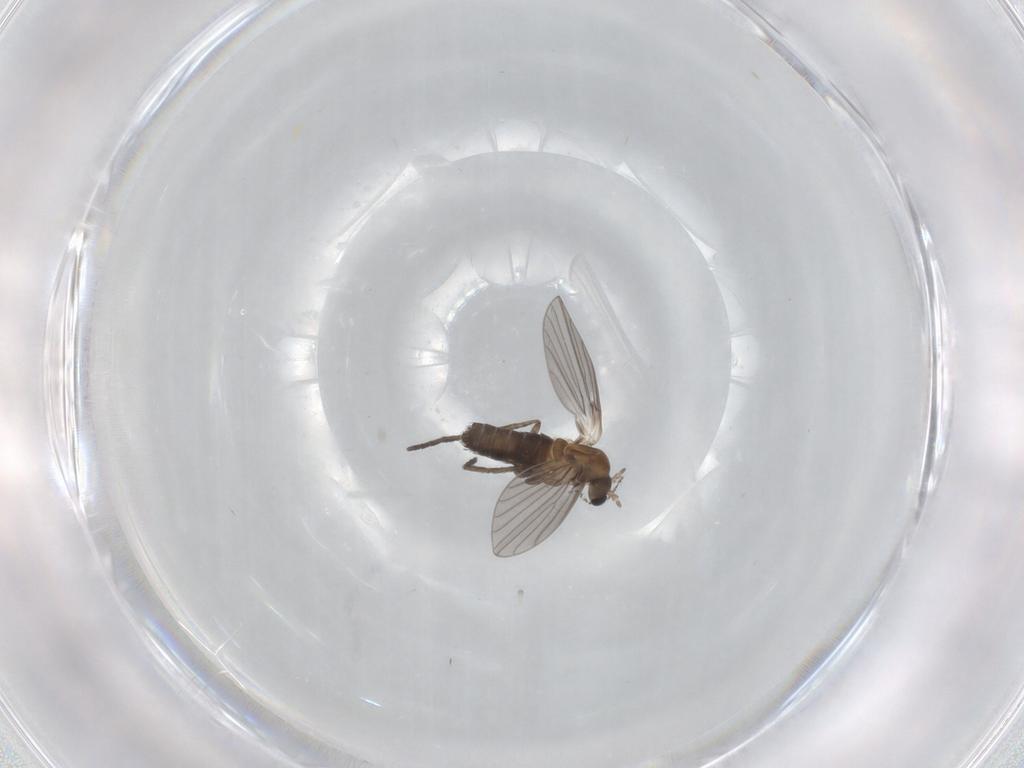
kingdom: Animalia
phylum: Arthropoda
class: Insecta
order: Diptera
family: Psychodidae
